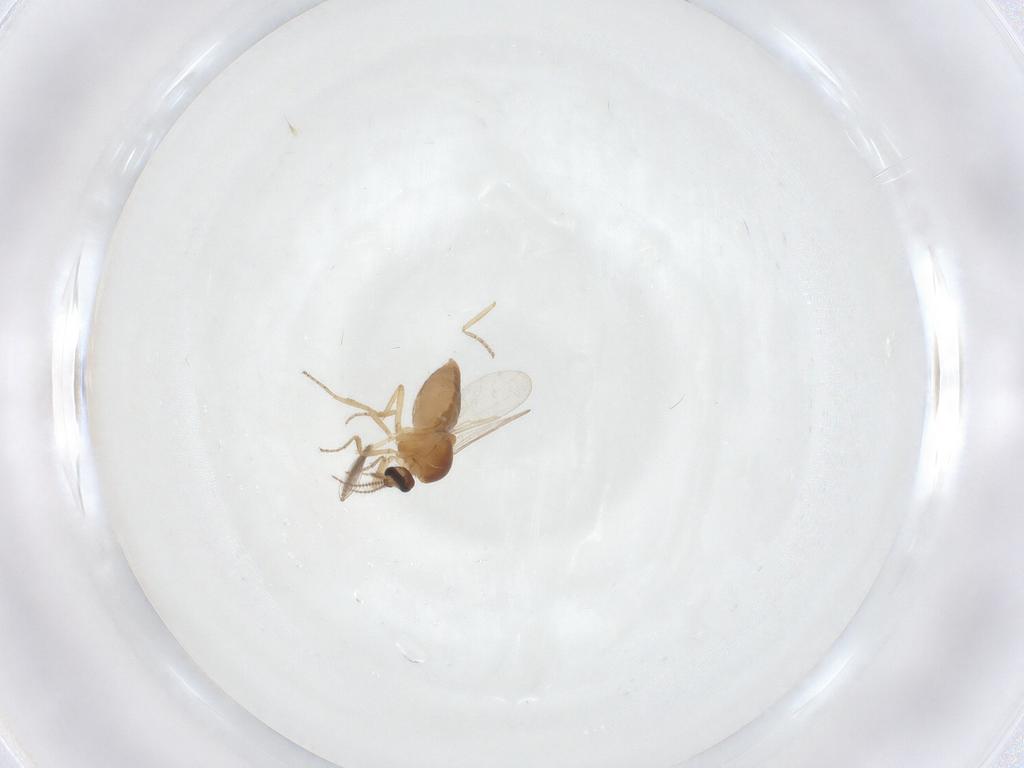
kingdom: Animalia
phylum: Arthropoda
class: Insecta
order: Diptera
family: Ceratopogonidae
